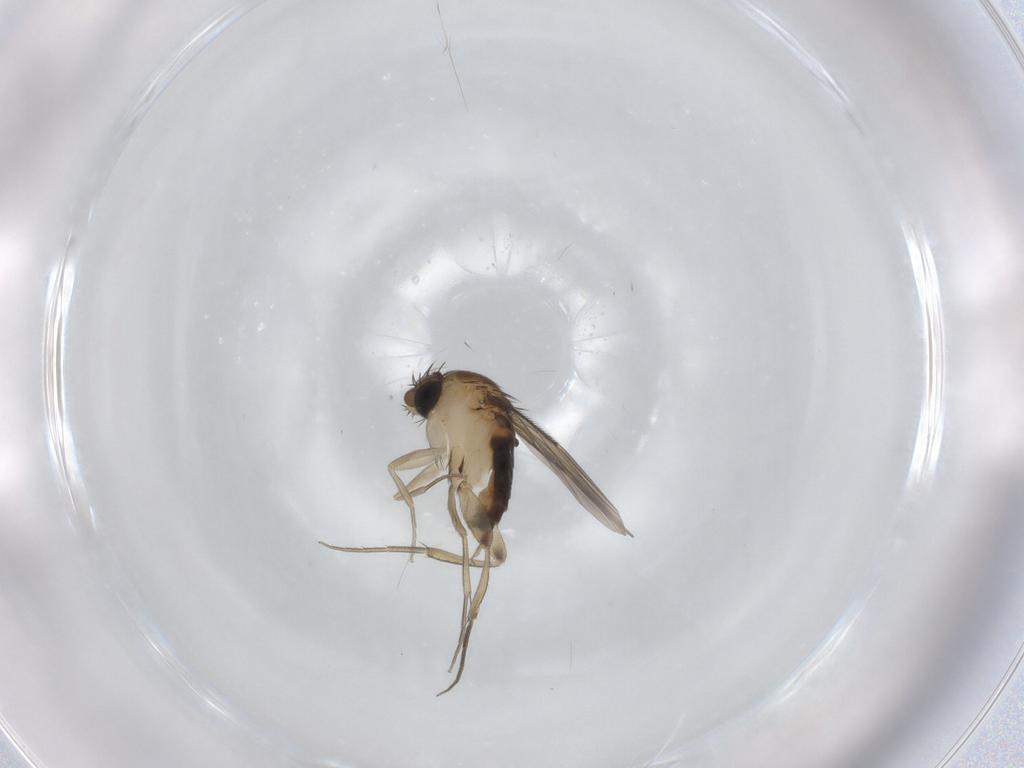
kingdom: Animalia
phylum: Arthropoda
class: Insecta
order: Diptera
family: Phoridae
